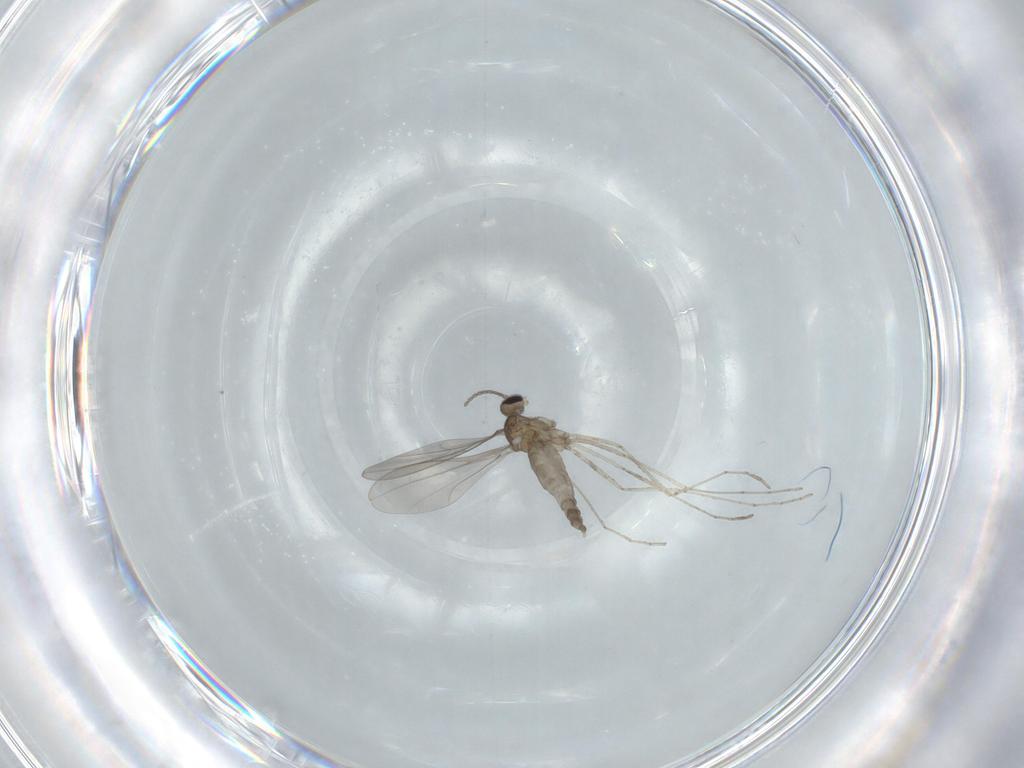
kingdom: Animalia
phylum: Arthropoda
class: Insecta
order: Diptera
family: Cecidomyiidae
